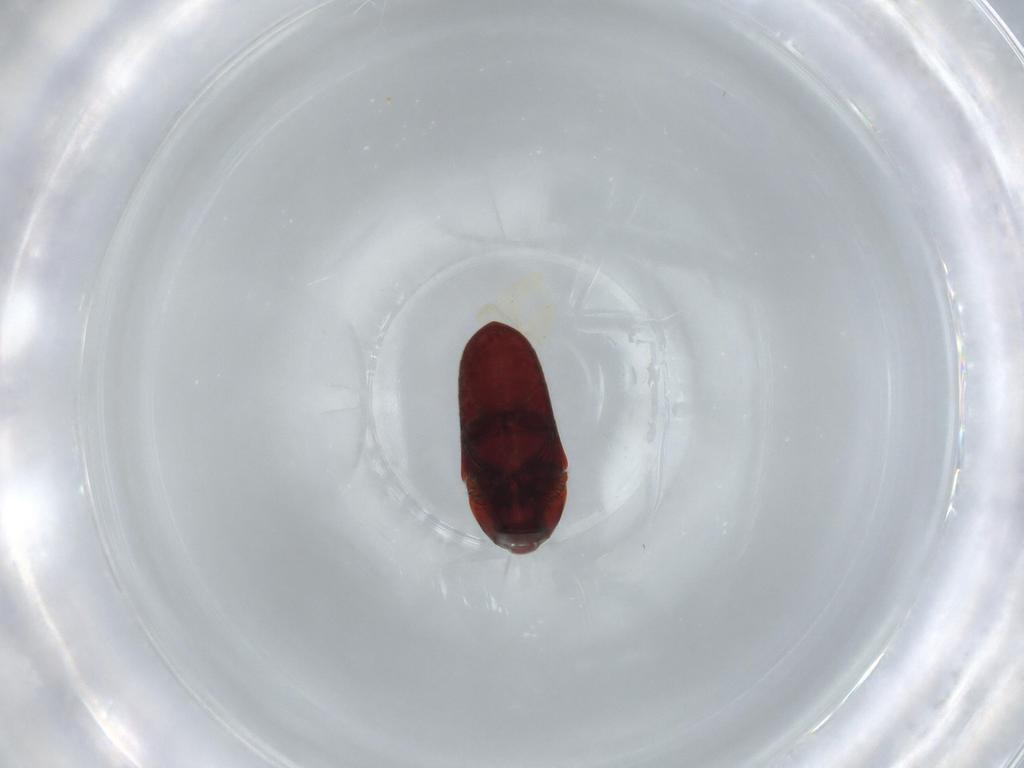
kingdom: Animalia
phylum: Arthropoda
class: Insecta
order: Coleoptera
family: Throscidae
